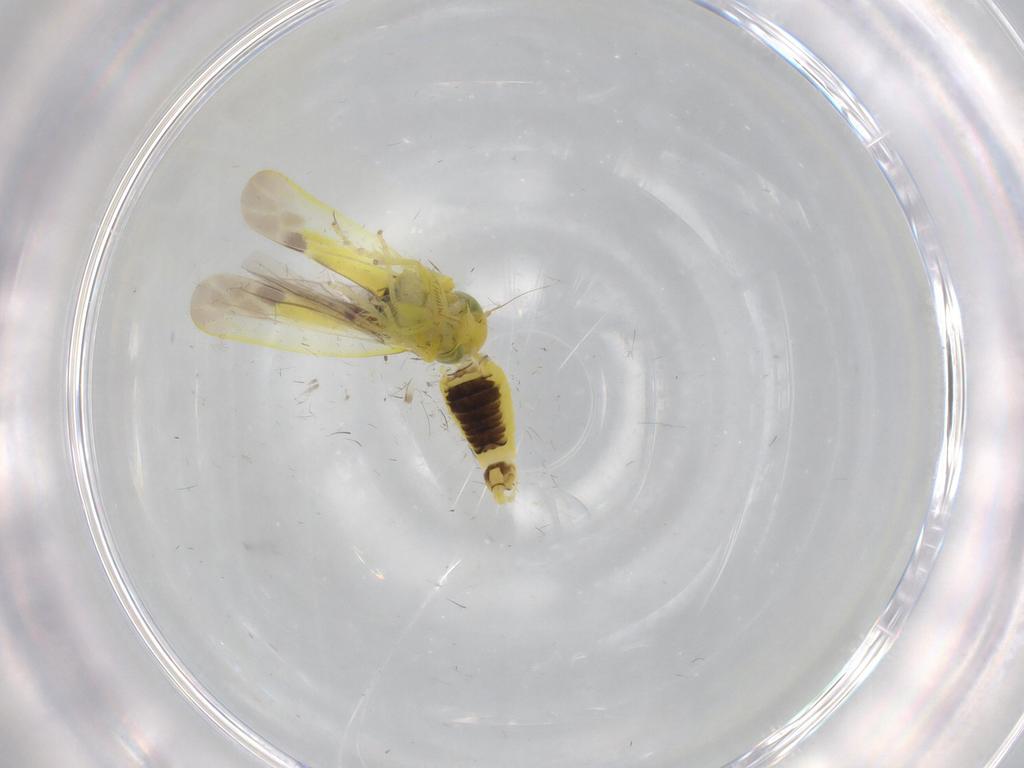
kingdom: Animalia
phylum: Arthropoda
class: Insecta
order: Hemiptera
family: Cicadellidae
